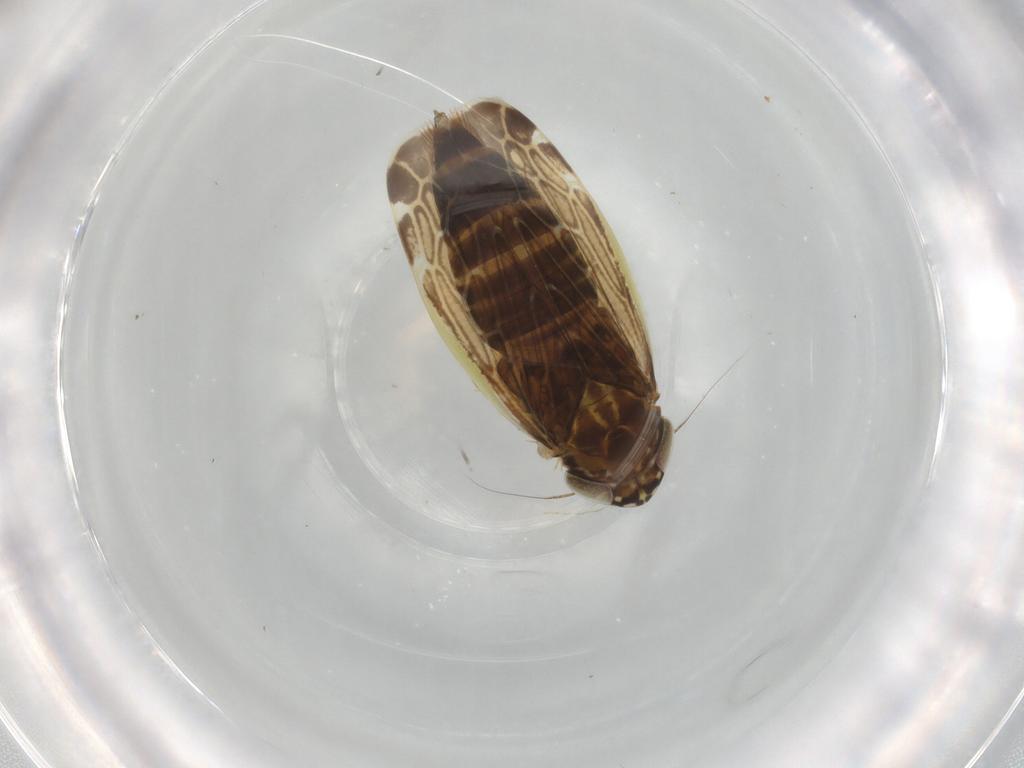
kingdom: Animalia
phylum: Arthropoda
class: Insecta
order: Hemiptera
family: Cicadellidae
